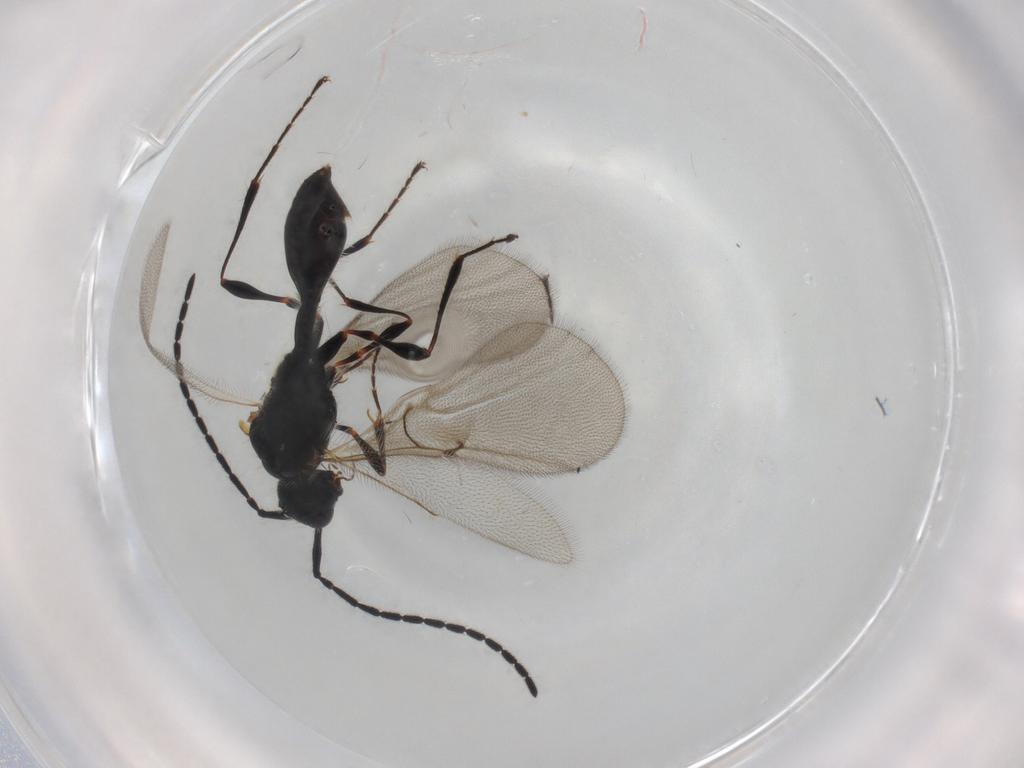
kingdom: Animalia
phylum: Arthropoda
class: Insecta
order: Hymenoptera
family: Diapriidae
